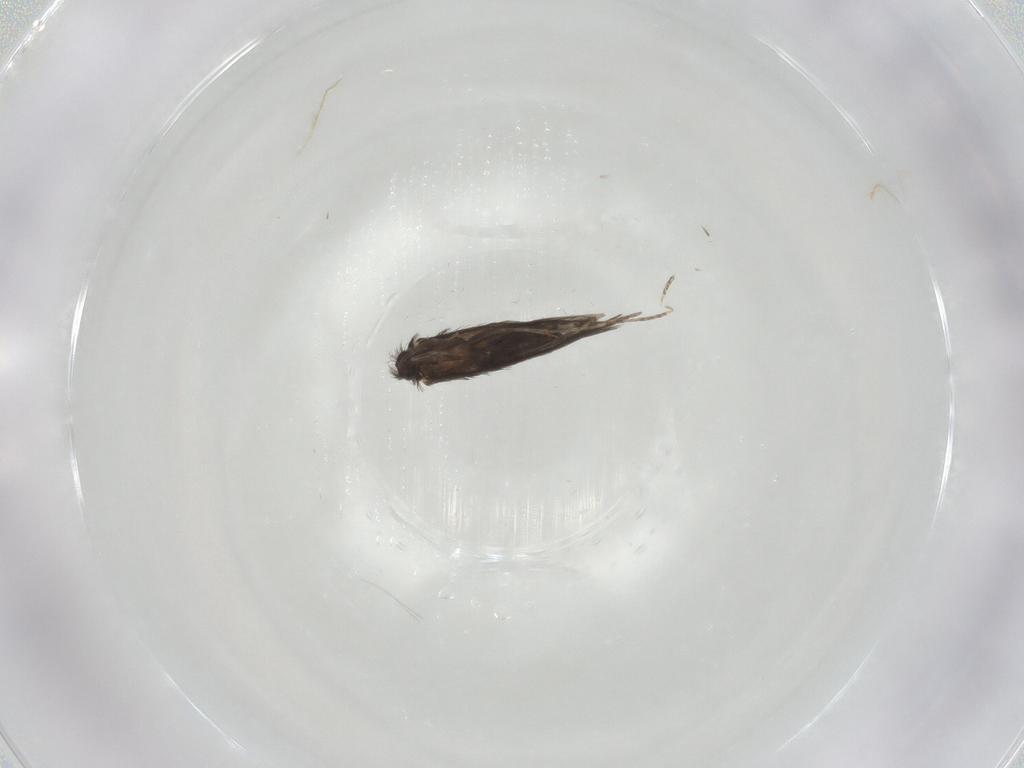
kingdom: Animalia
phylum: Arthropoda
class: Insecta
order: Trichoptera
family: Hydroptilidae
